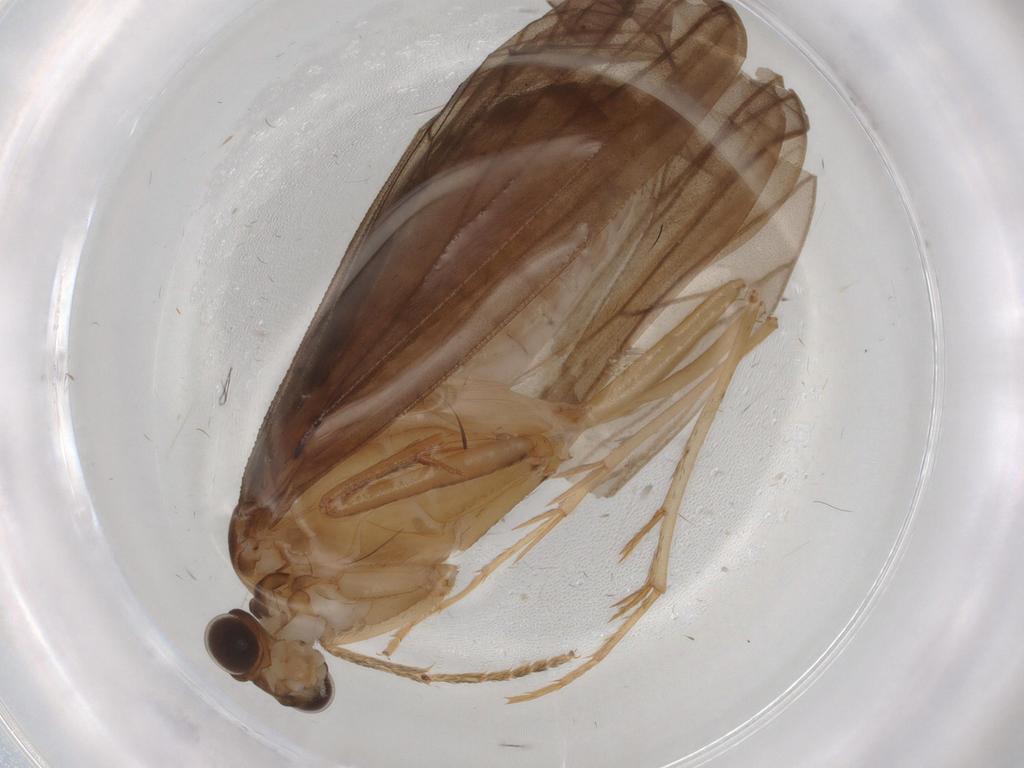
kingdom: Animalia
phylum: Arthropoda
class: Insecta
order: Trichoptera
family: Lepidostomatidae
